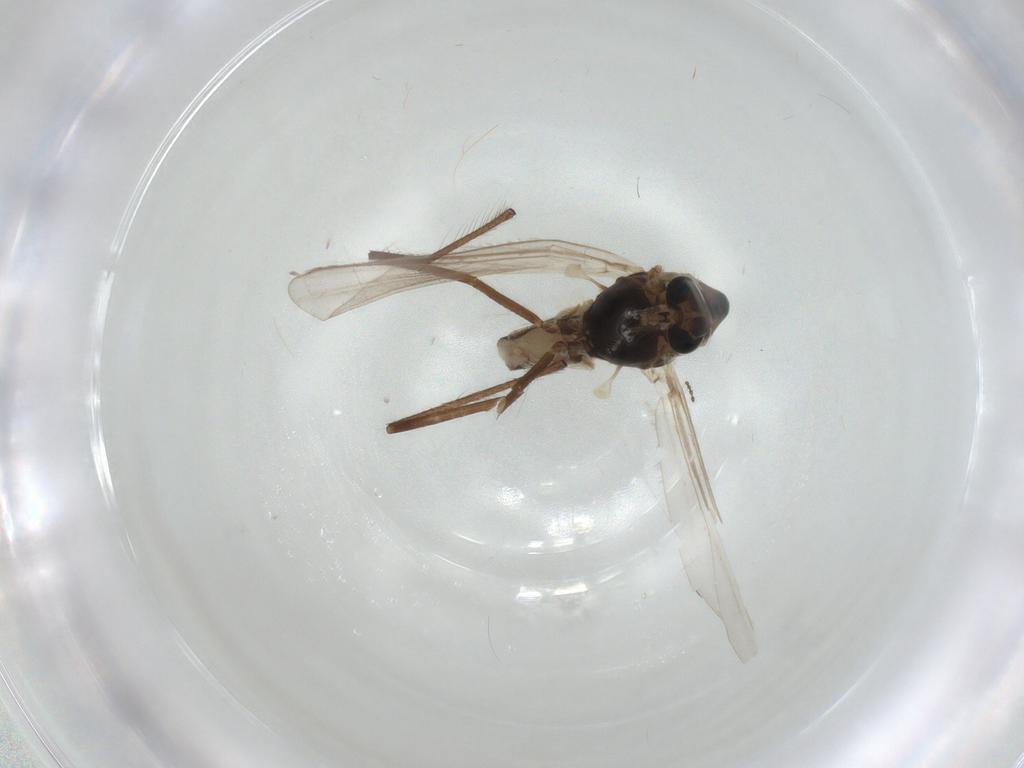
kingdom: Animalia
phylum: Arthropoda
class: Insecta
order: Diptera
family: Chironomidae
